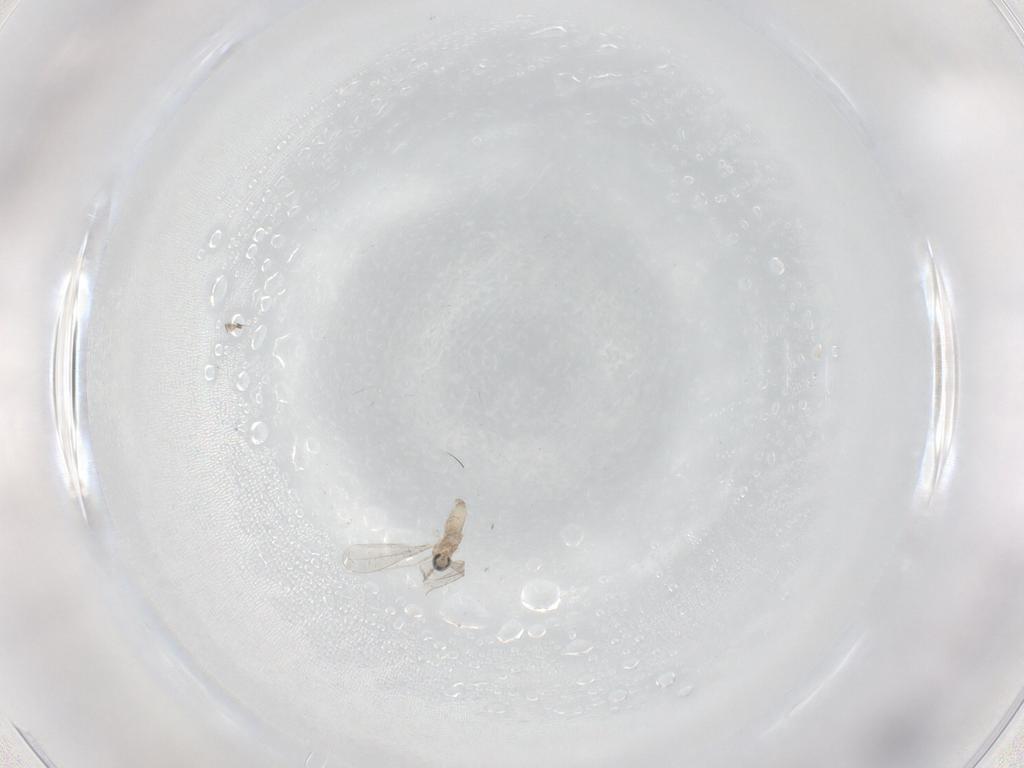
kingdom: Animalia
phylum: Arthropoda
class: Insecta
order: Diptera
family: Cecidomyiidae
